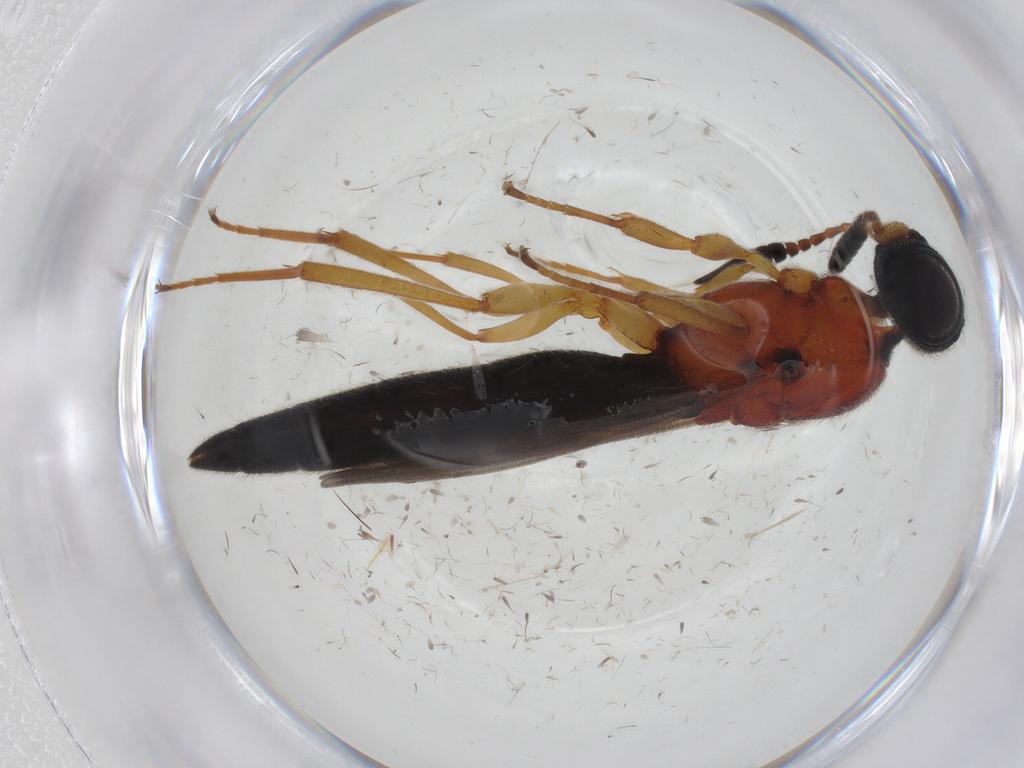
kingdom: Animalia
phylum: Arthropoda
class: Insecta
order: Hymenoptera
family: Scelionidae
